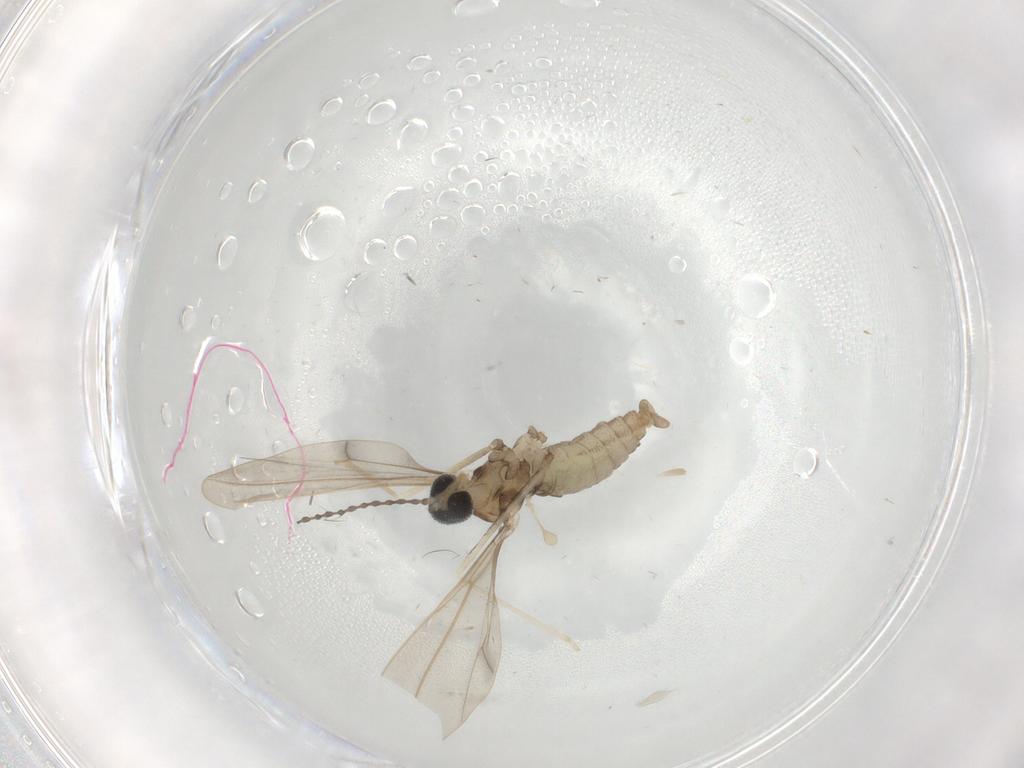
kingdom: Animalia
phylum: Arthropoda
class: Insecta
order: Diptera
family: Cecidomyiidae
